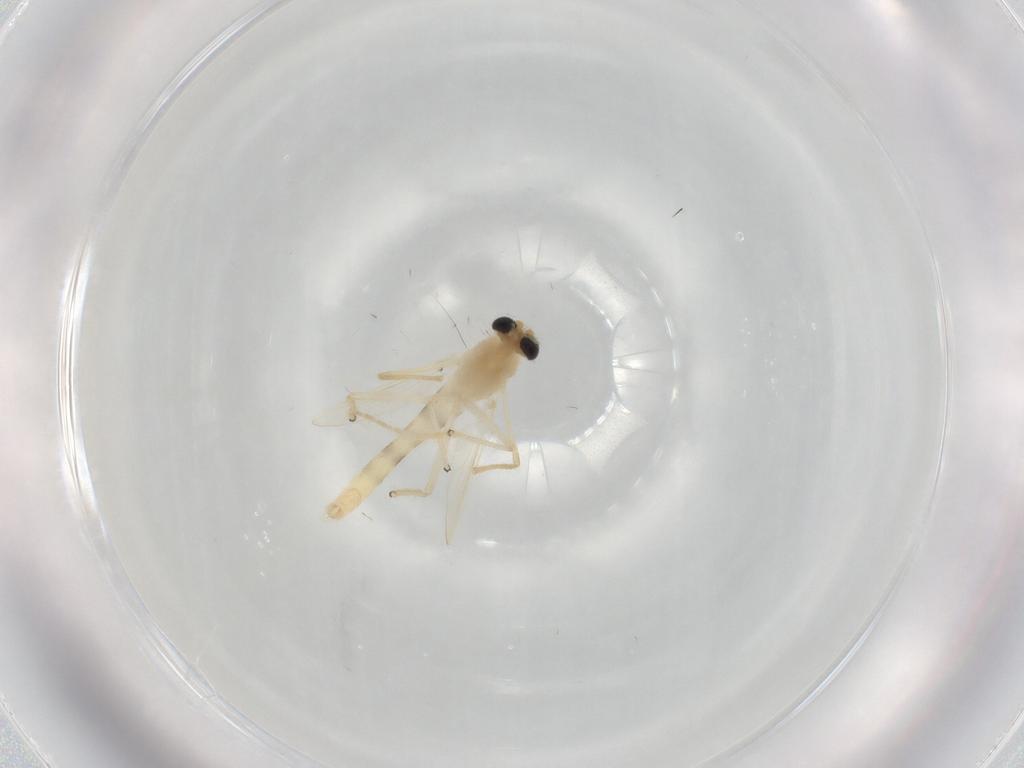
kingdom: Animalia
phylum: Arthropoda
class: Insecta
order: Diptera
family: Chironomidae
